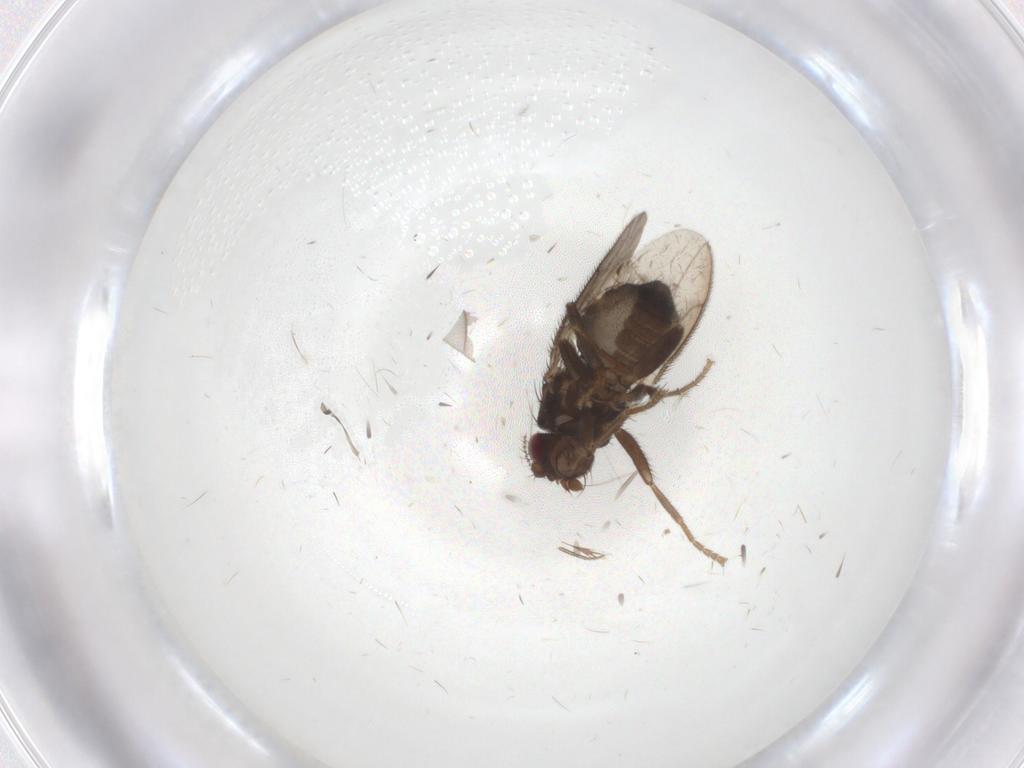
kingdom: Animalia
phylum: Arthropoda
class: Insecta
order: Diptera
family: Sphaeroceridae
